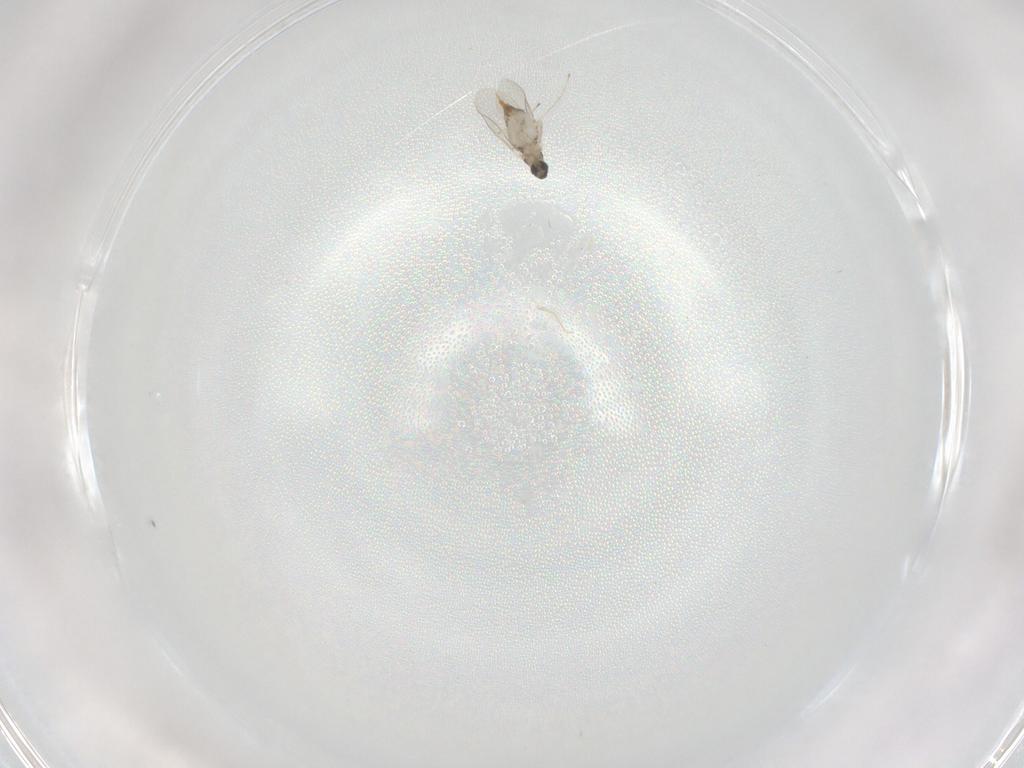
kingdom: Animalia
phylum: Arthropoda
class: Insecta
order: Diptera
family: Cecidomyiidae
